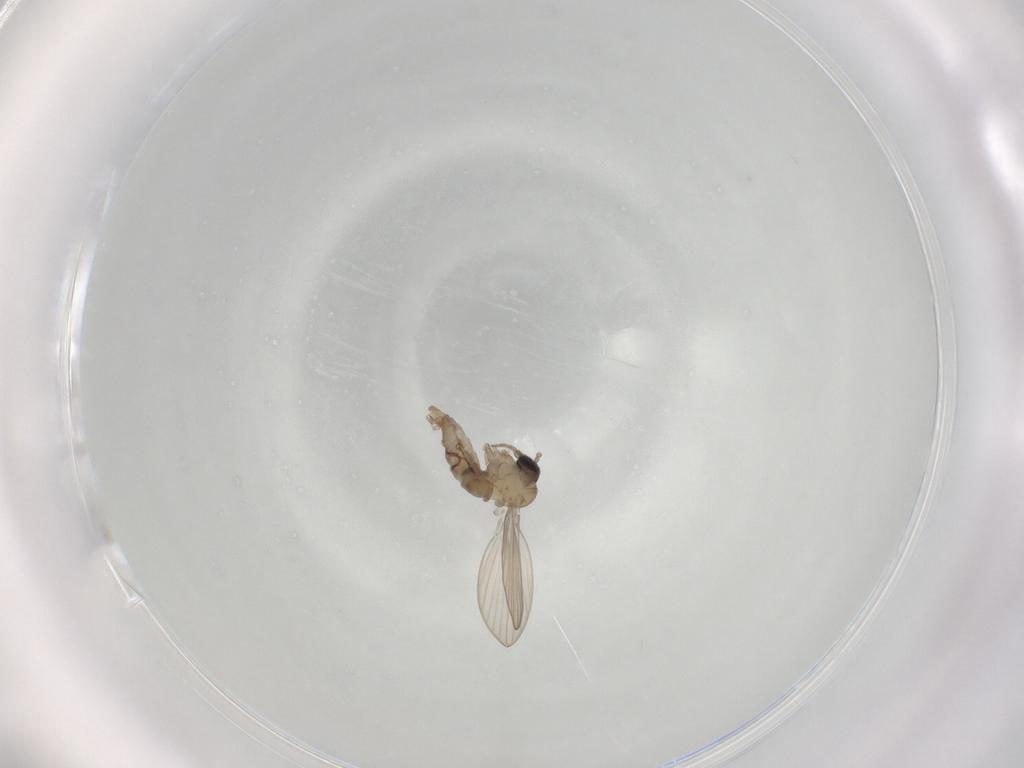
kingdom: Animalia
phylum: Arthropoda
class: Insecta
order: Diptera
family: Psychodidae
